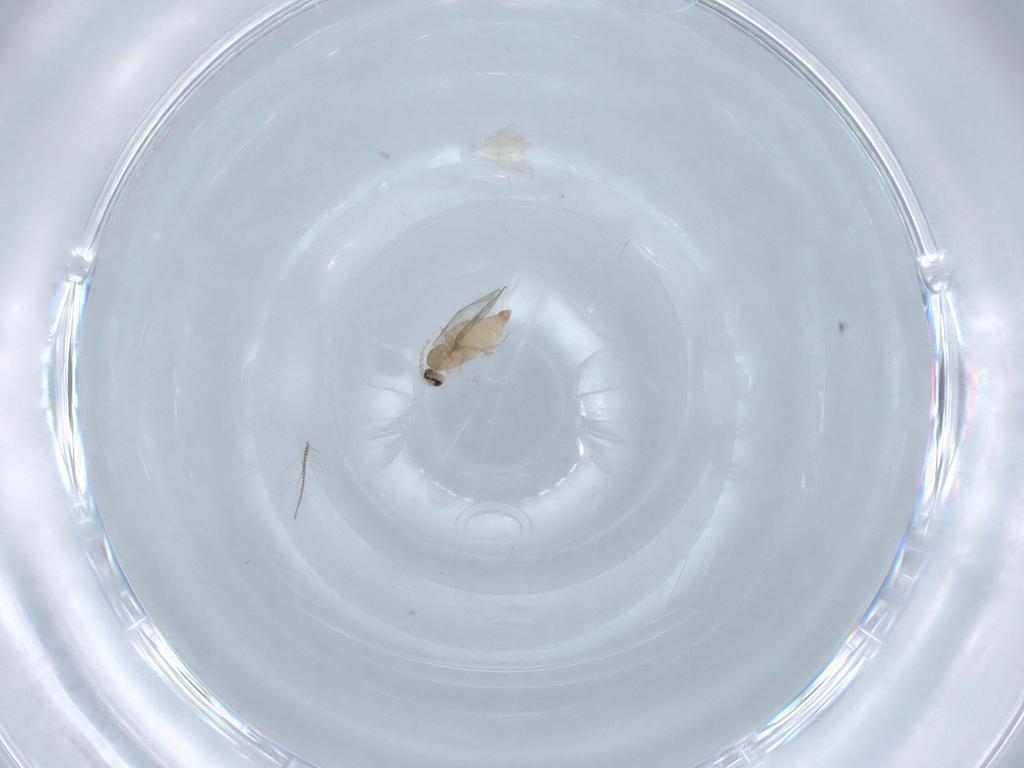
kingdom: Animalia
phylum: Arthropoda
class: Insecta
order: Diptera
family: Cecidomyiidae
